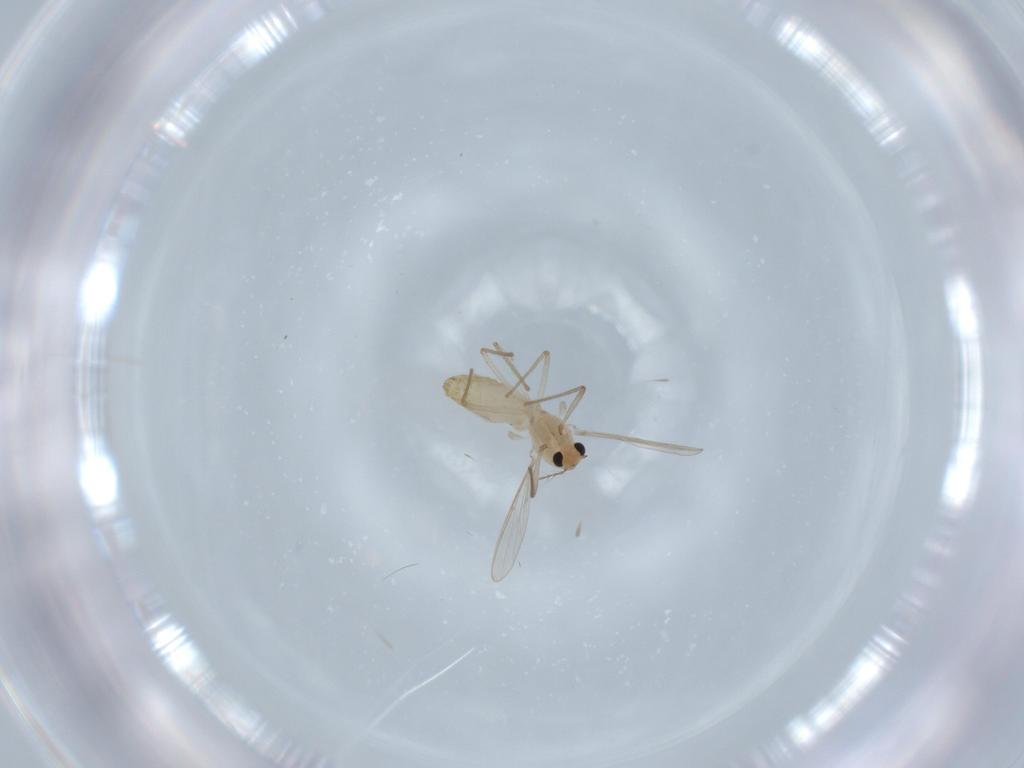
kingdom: Animalia
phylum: Arthropoda
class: Insecta
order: Diptera
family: Chironomidae
